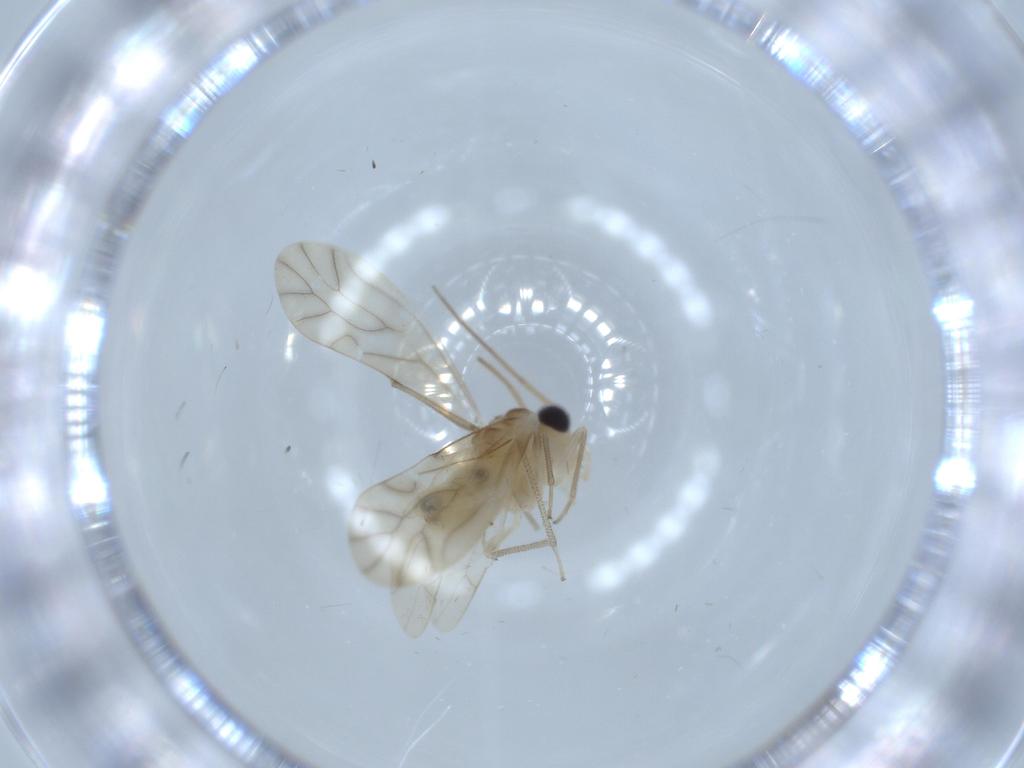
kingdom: Animalia
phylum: Arthropoda
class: Insecta
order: Psocodea
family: Caeciliusidae
